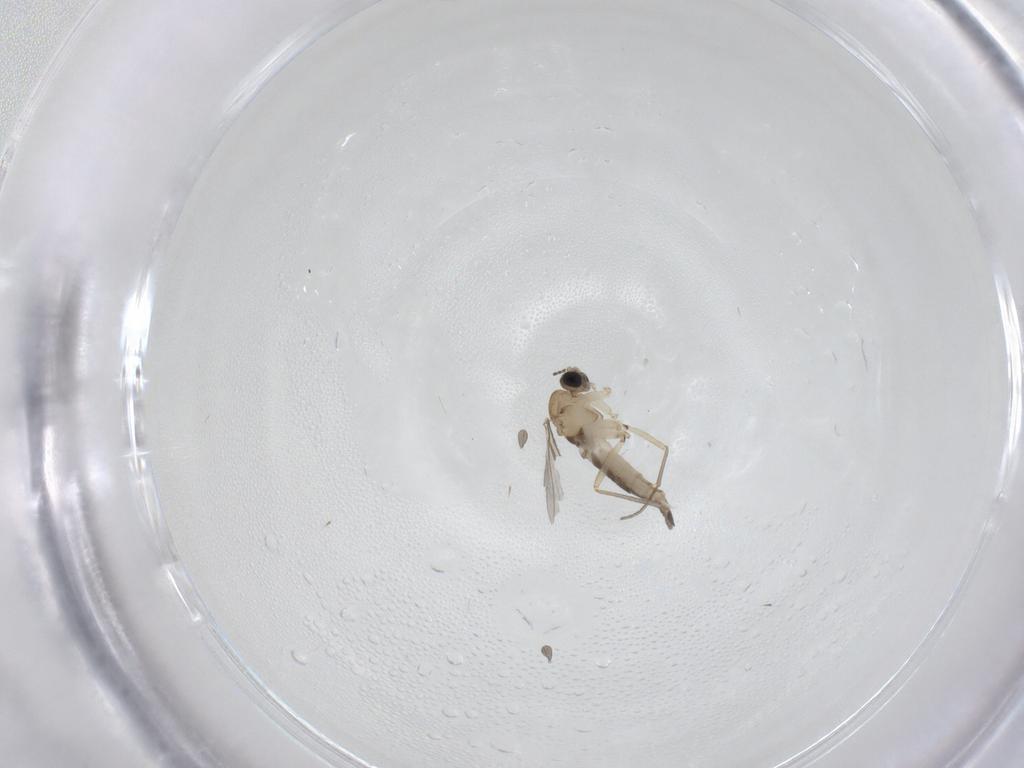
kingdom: Animalia
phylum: Arthropoda
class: Insecta
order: Diptera
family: Sciaridae
